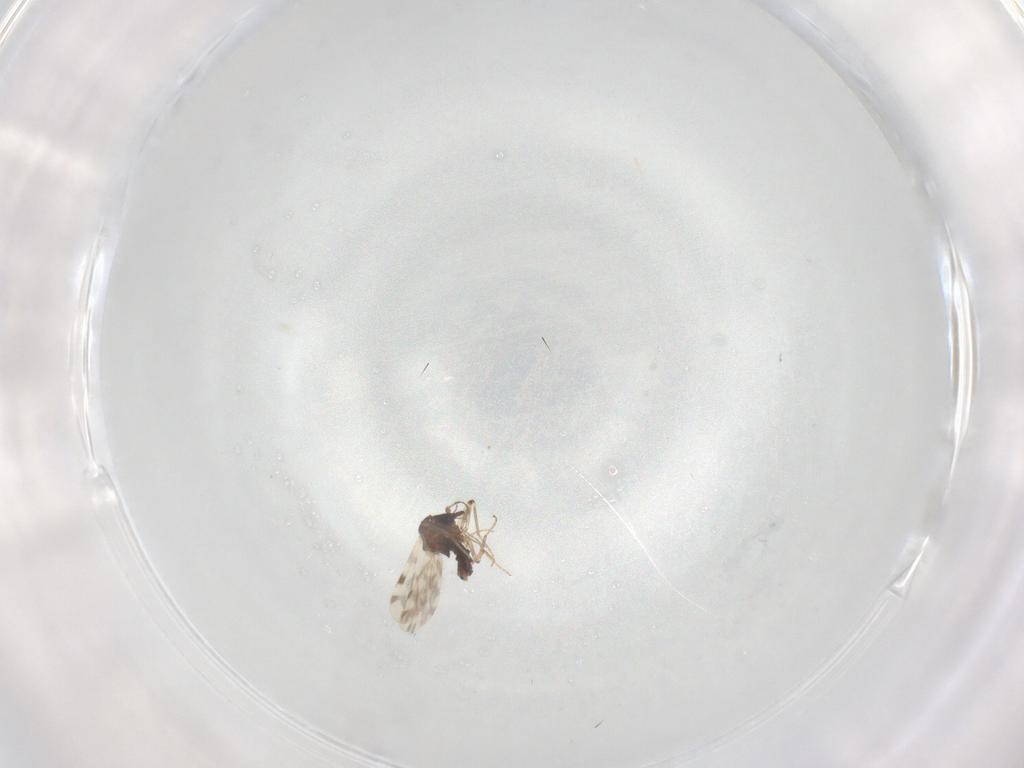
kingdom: Animalia
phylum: Arthropoda
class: Insecta
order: Diptera
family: Ceratopogonidae
